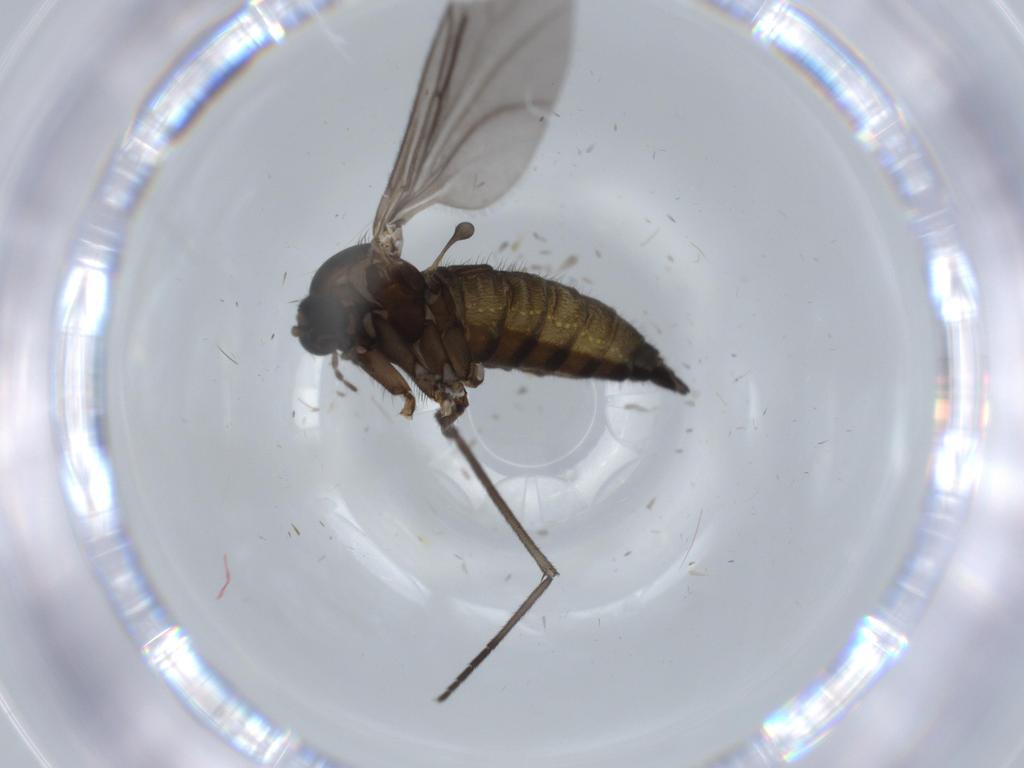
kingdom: Animalia
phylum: Arthropoda
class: Insecta
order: Diptera
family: Sciaridae
